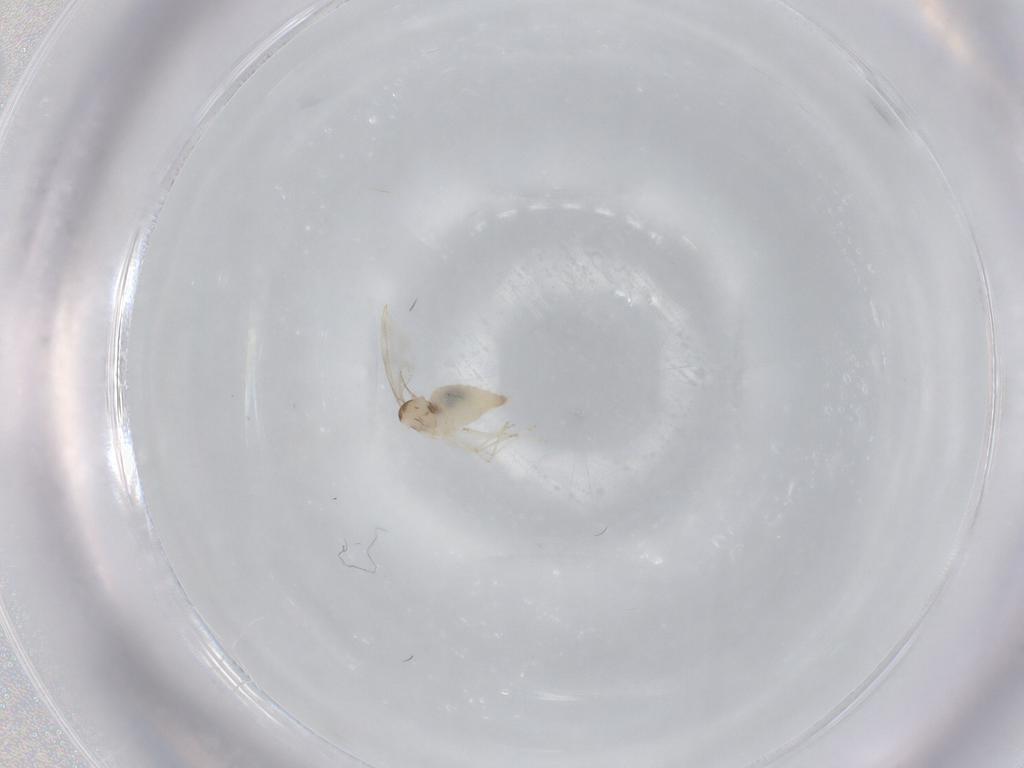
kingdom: Animalia
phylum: Arthropoda
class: Insecta
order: Diptera
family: Cecidomyiidae
